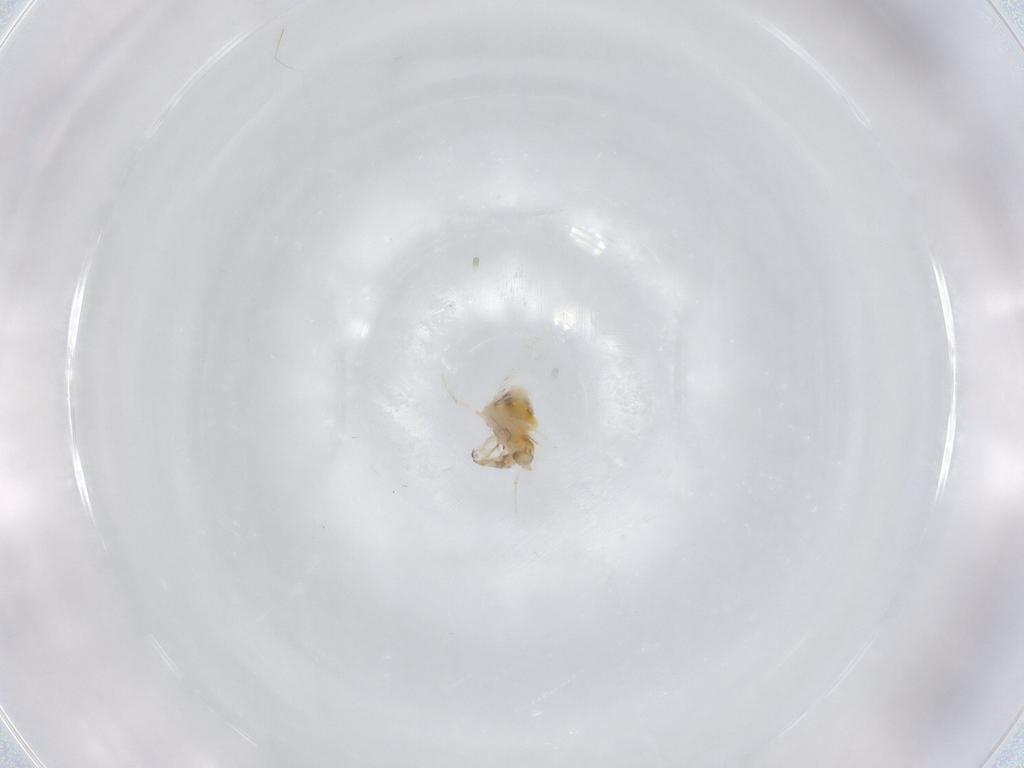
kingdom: Animalia
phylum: Arthropoda
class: Insecta
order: Hemiptera
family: Aleyrodidae
